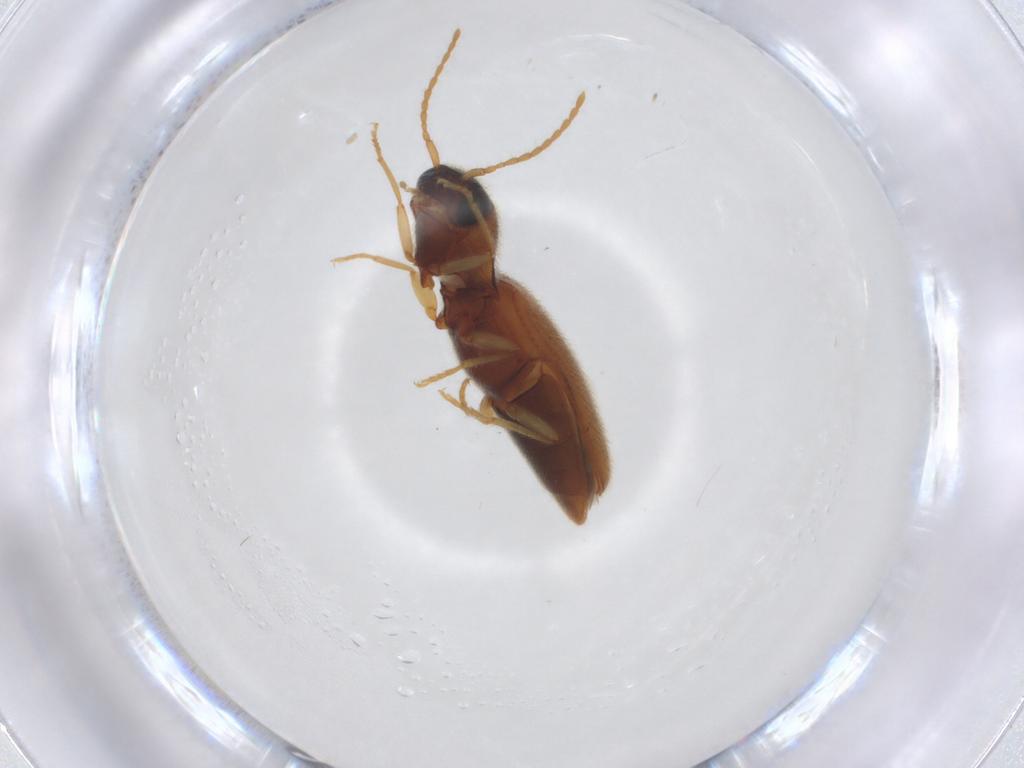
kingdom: Animalia
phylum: Arthropoda
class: Insecta
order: Coleoptera
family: Elateridae
